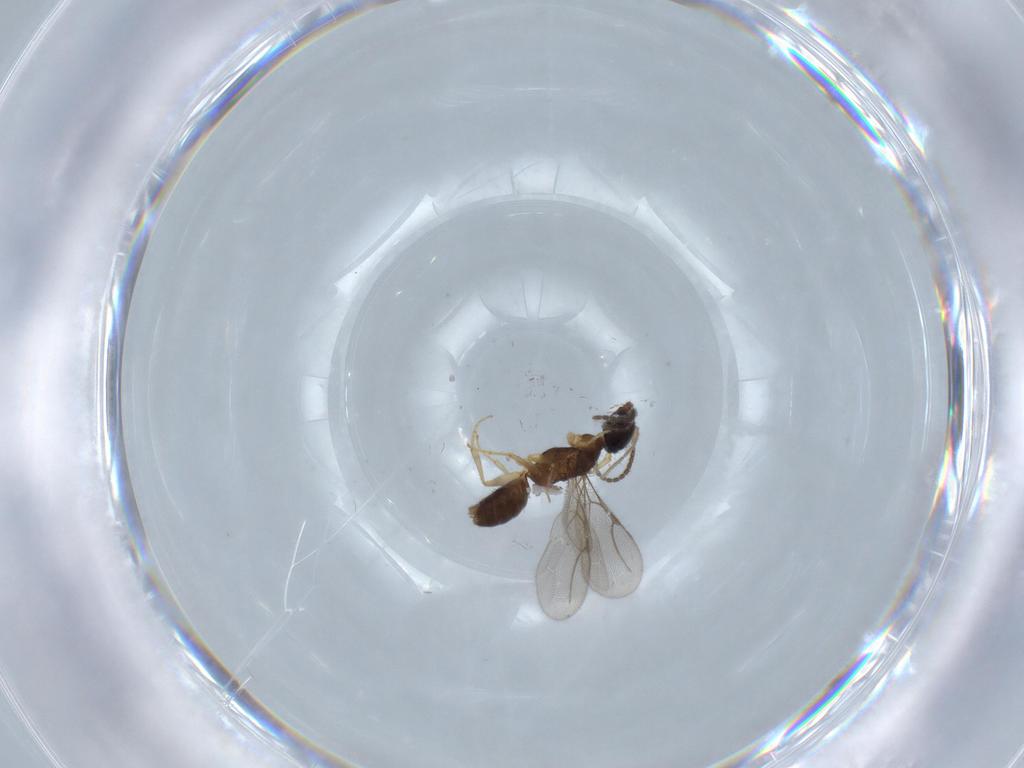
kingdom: Animalia
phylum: Arthropoda
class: Insecta
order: Hymenoptera
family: Bethylidae
